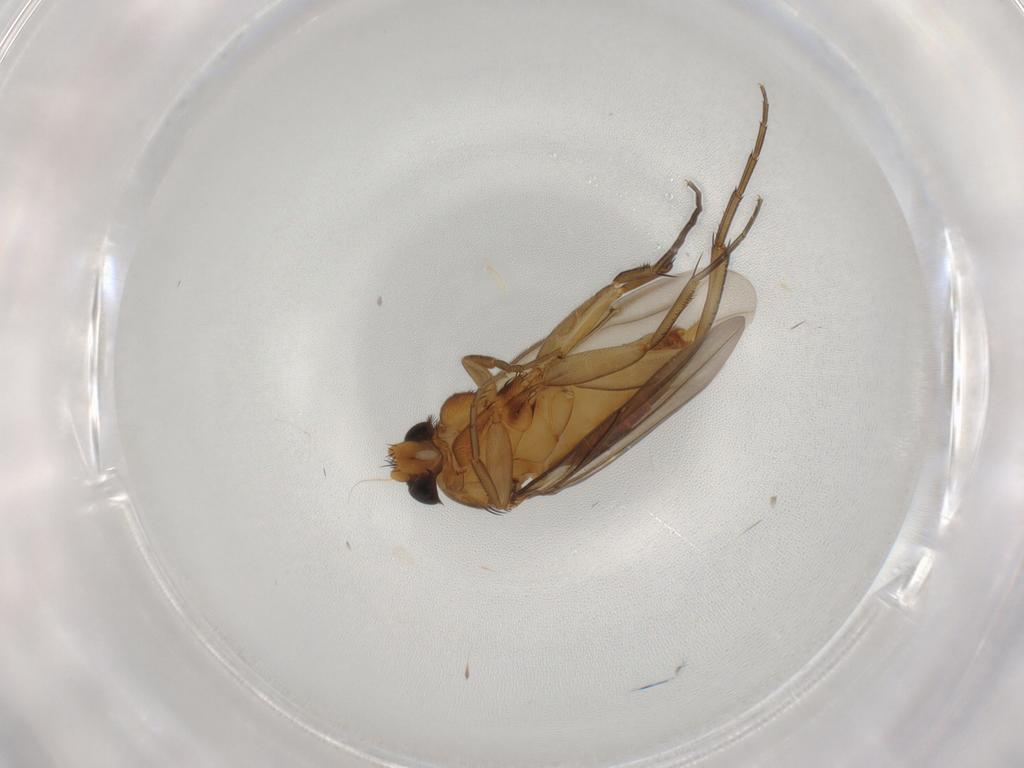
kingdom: Animalia
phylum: Arthropoda
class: Insecta
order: Diptera
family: Cecidomyiidae
